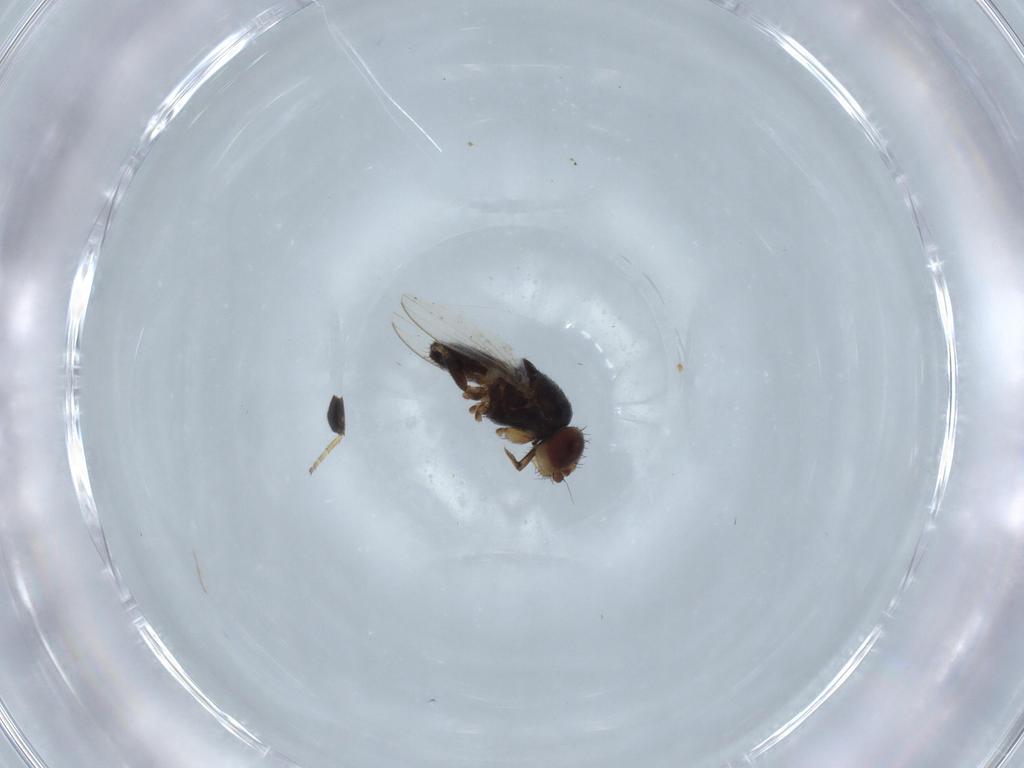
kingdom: Animalia
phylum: Arthropoda
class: Insecta
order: Diptera
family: Milichiidae
